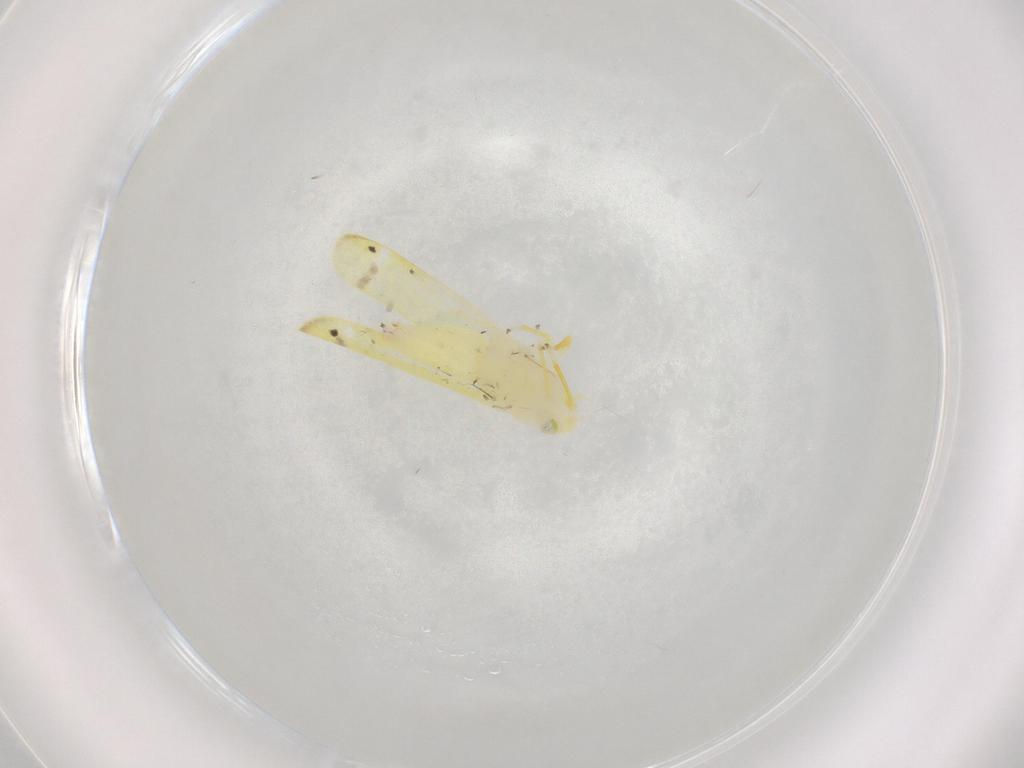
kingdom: Animalia
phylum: Arthropoda
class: Insecta
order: Hemiptera
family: Cicadellidae
